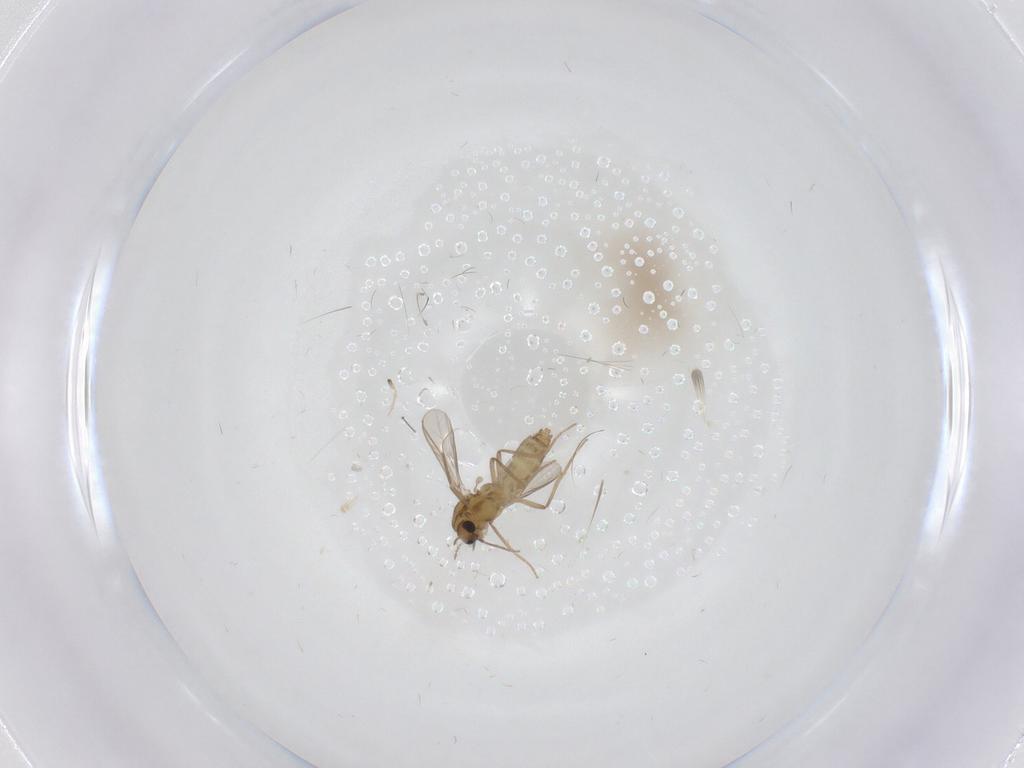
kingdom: Animalia
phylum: Arthropoda
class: Insecta
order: Diptera
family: Chironomidae
